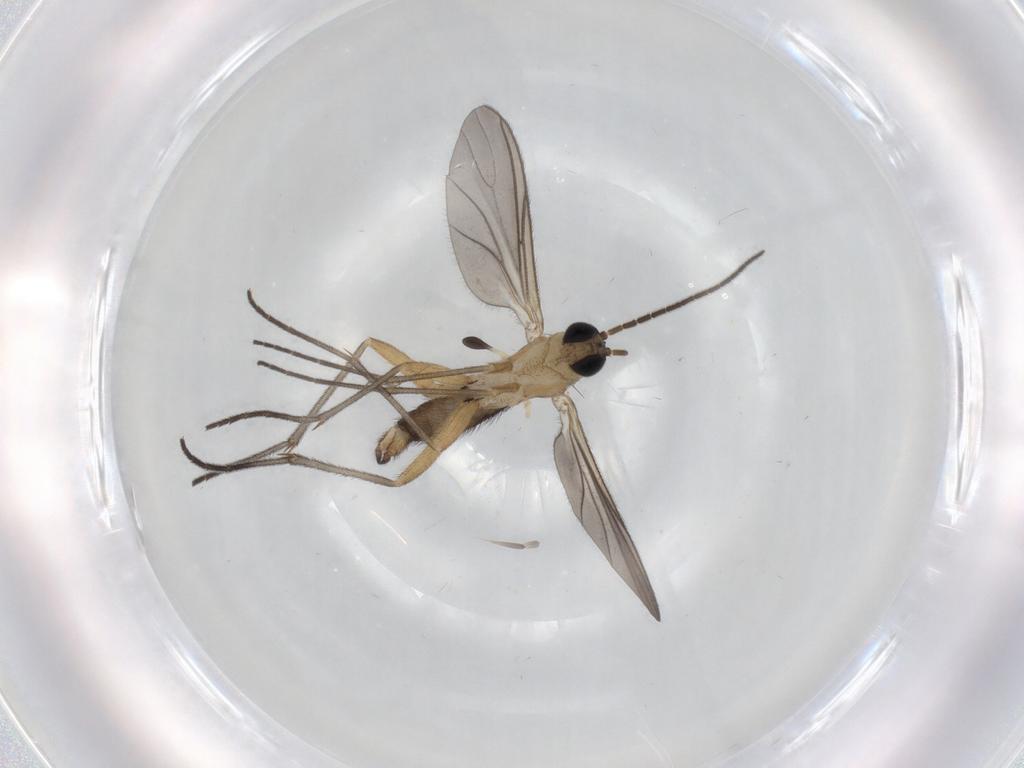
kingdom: Animalia
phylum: Arthropoda
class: Insecta
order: Diptera
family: Sciaridae
